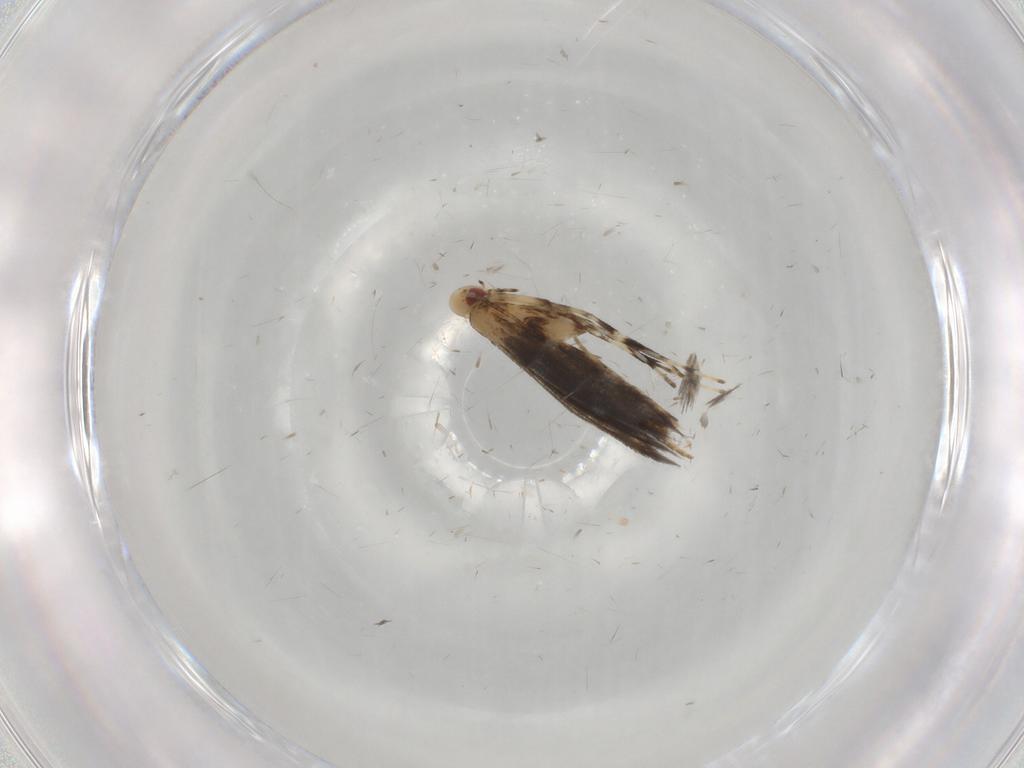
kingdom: Animalia
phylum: Arthropoda
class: Insecta
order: Lepidoptera
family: Gracillariidae
